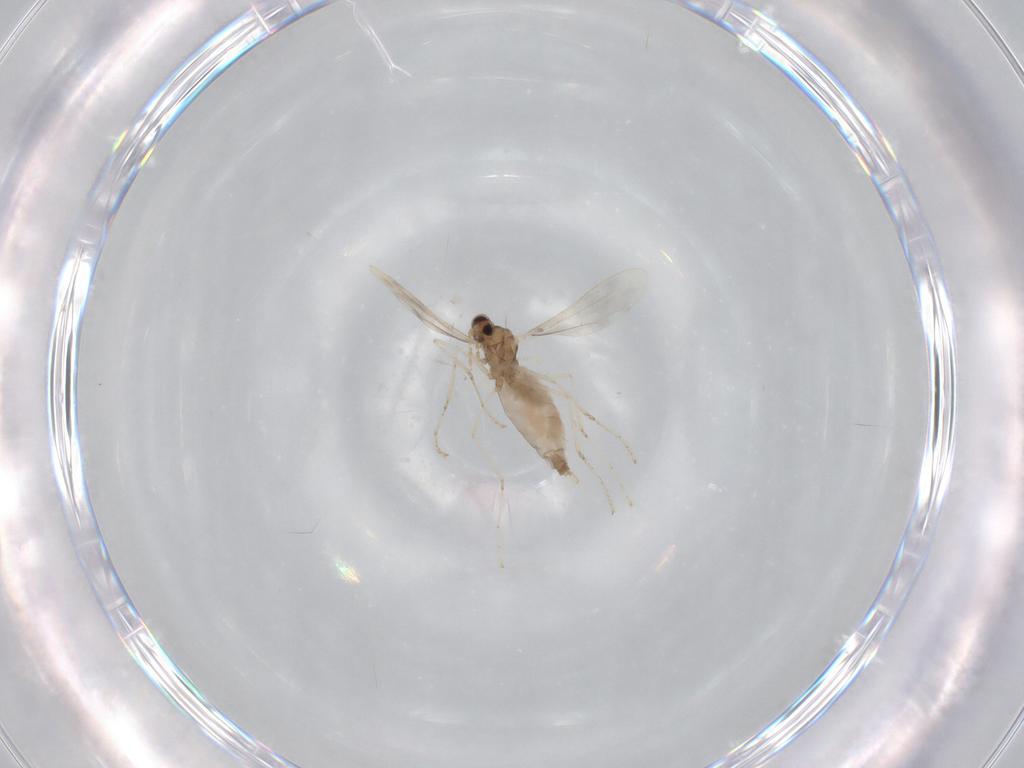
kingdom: Animalia
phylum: Arthropoda
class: Insecta
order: Diptera
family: Cecidomyiidae
